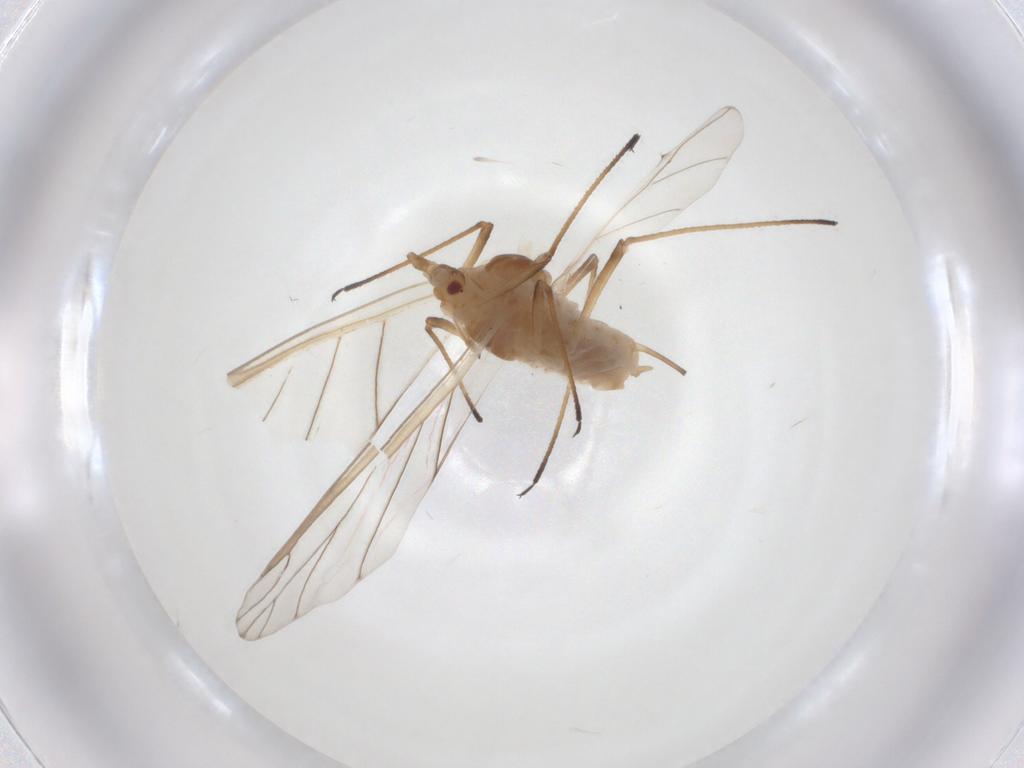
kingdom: Animalia
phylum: Arthropoda
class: Insecta
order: Hemiptera
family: Aphididae
